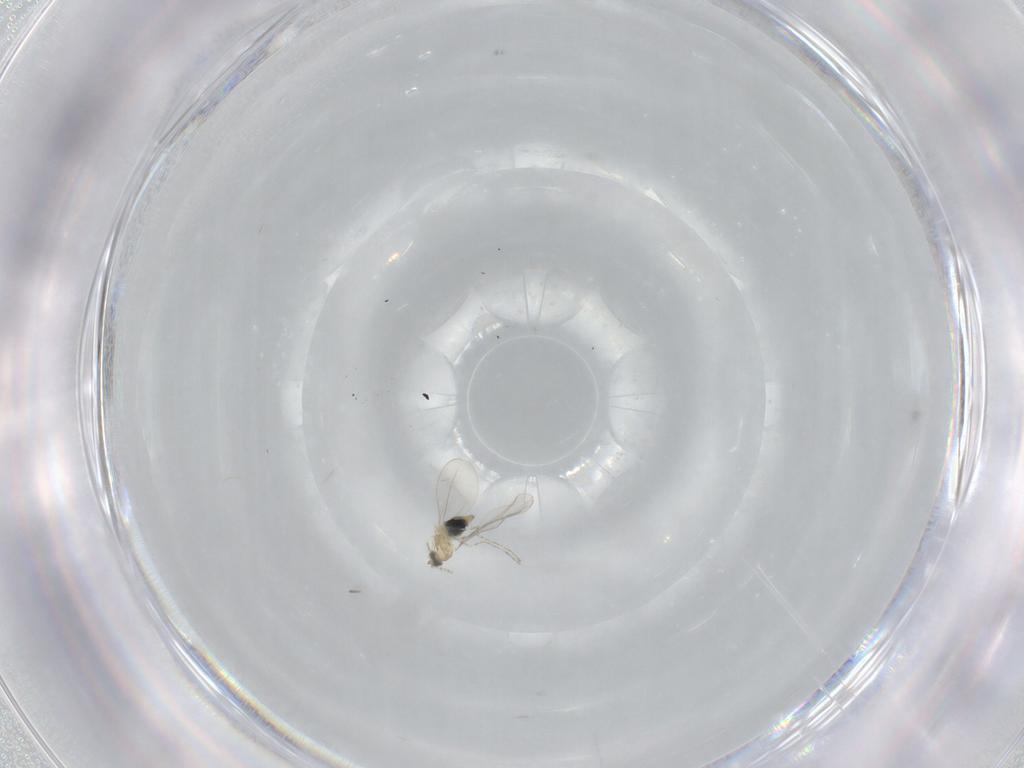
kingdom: Animalia
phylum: Arthropoda
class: Insecta
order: Diptera
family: Cecidomyiidae
